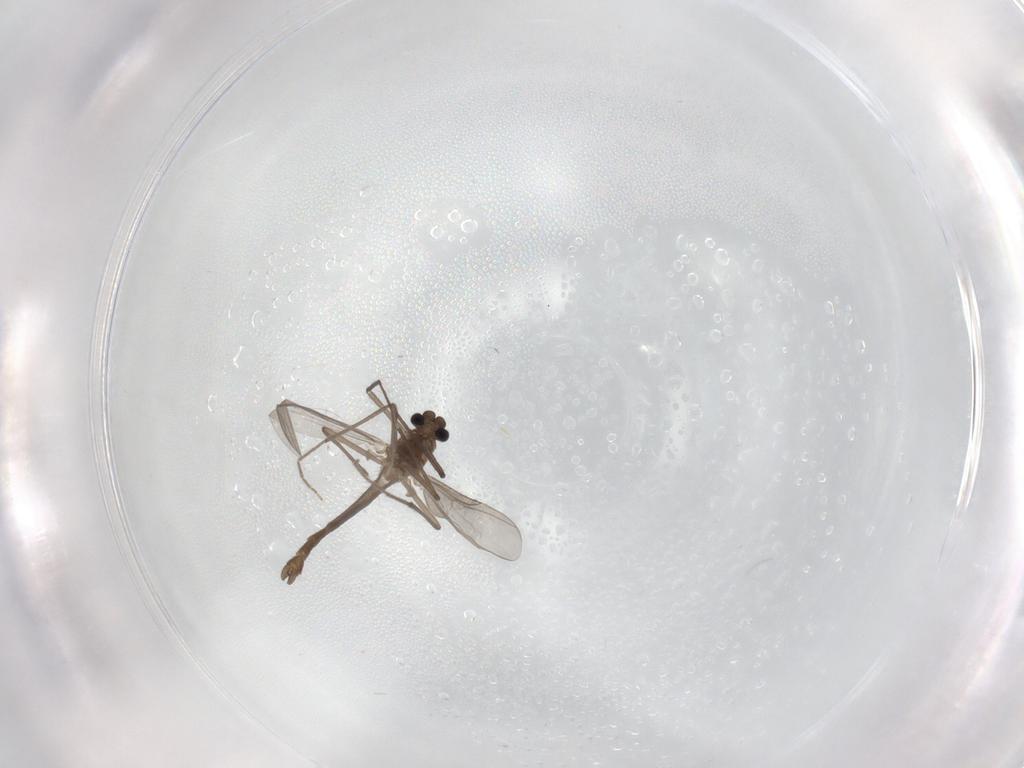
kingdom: Animalia
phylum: Arthropoda
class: Insecta
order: Diptera
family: Chironomidae
